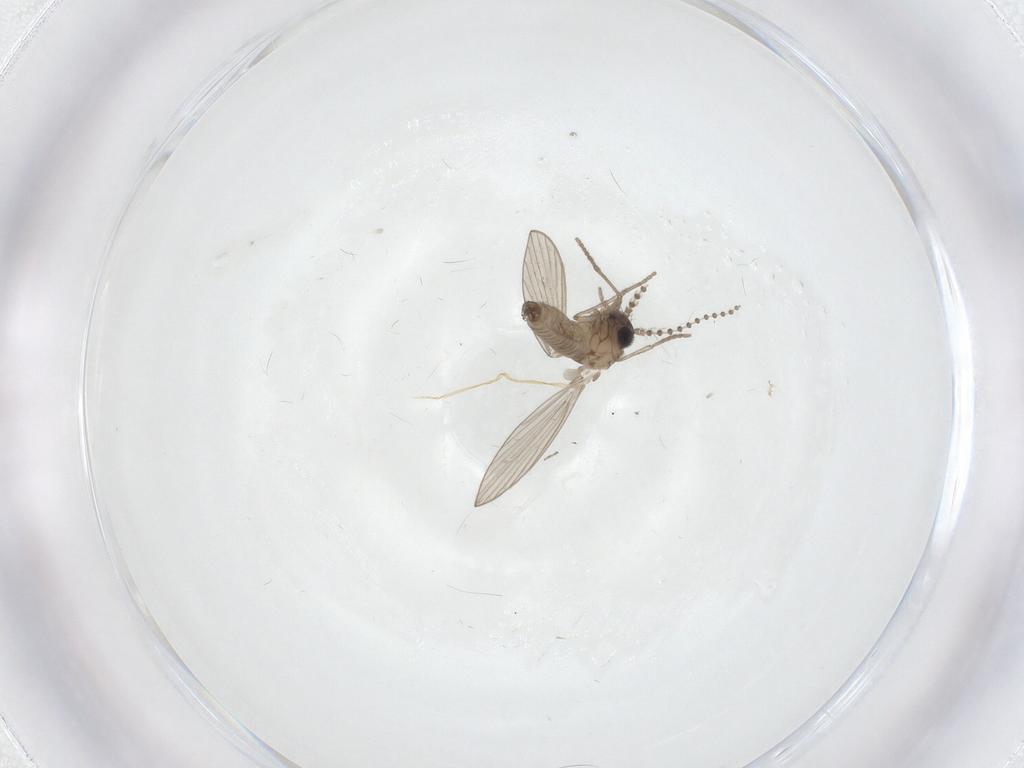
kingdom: Animalia
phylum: Arthropoda
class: Insecta
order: Diptera
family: Psychodidae
